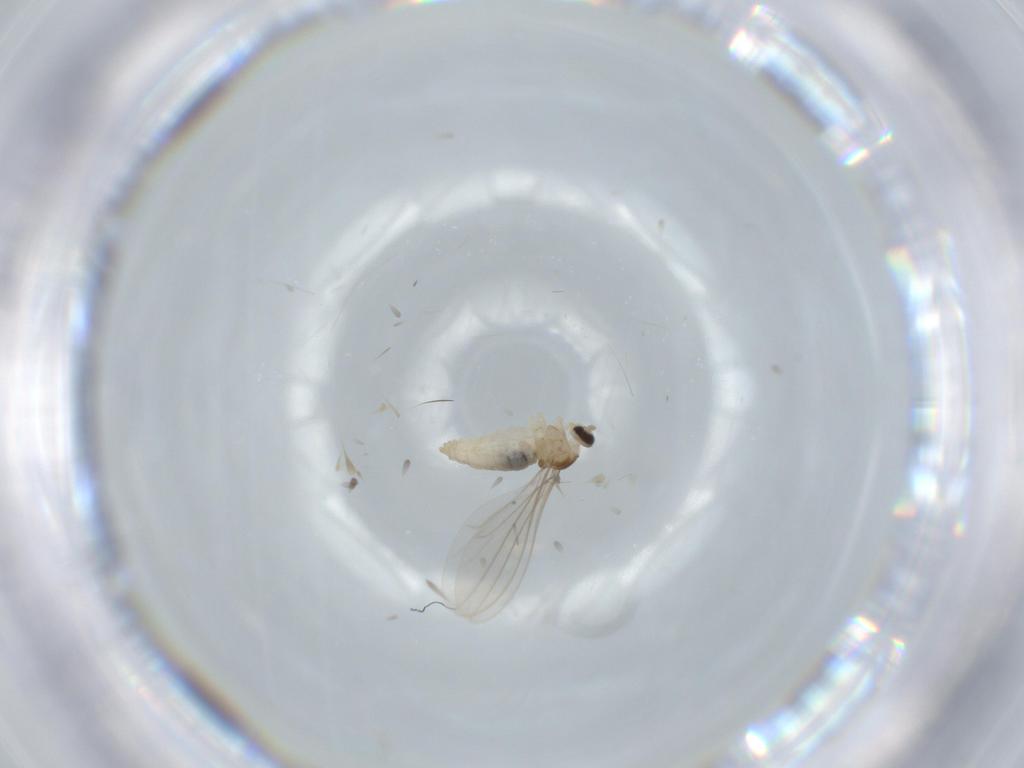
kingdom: Animalia
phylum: Arthropoda
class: Insecta
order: Diptera
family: Cecidomyiidae
